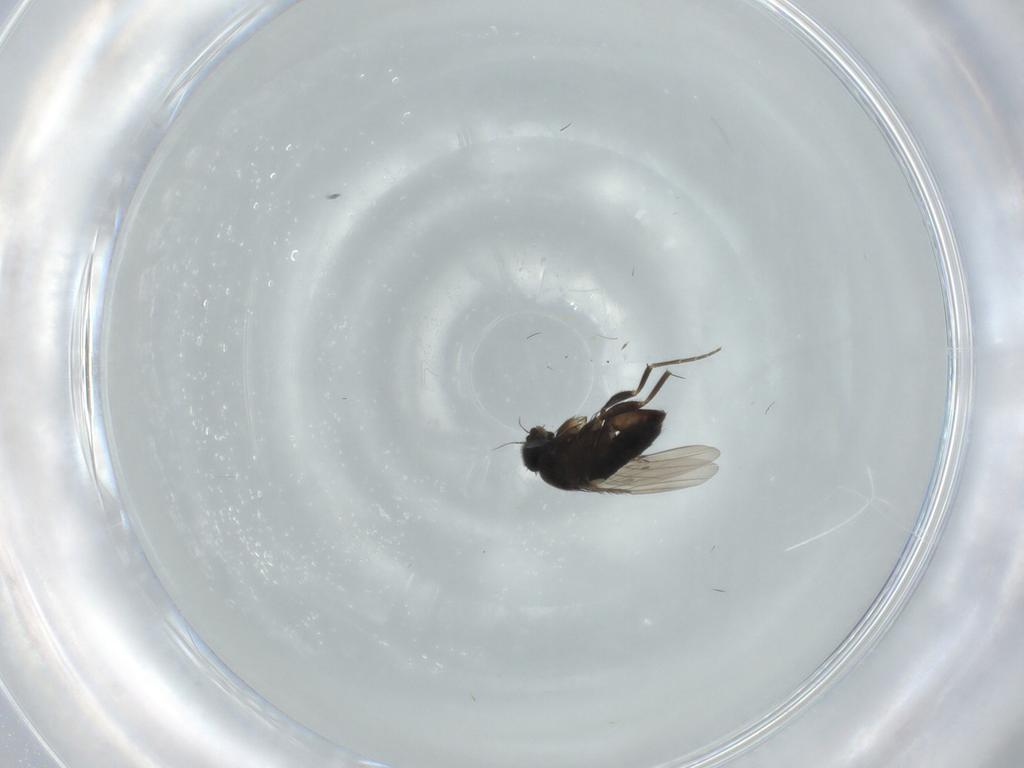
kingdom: Animalia
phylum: Arthropoda
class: Insecta
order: Diptera
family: Phoridae
